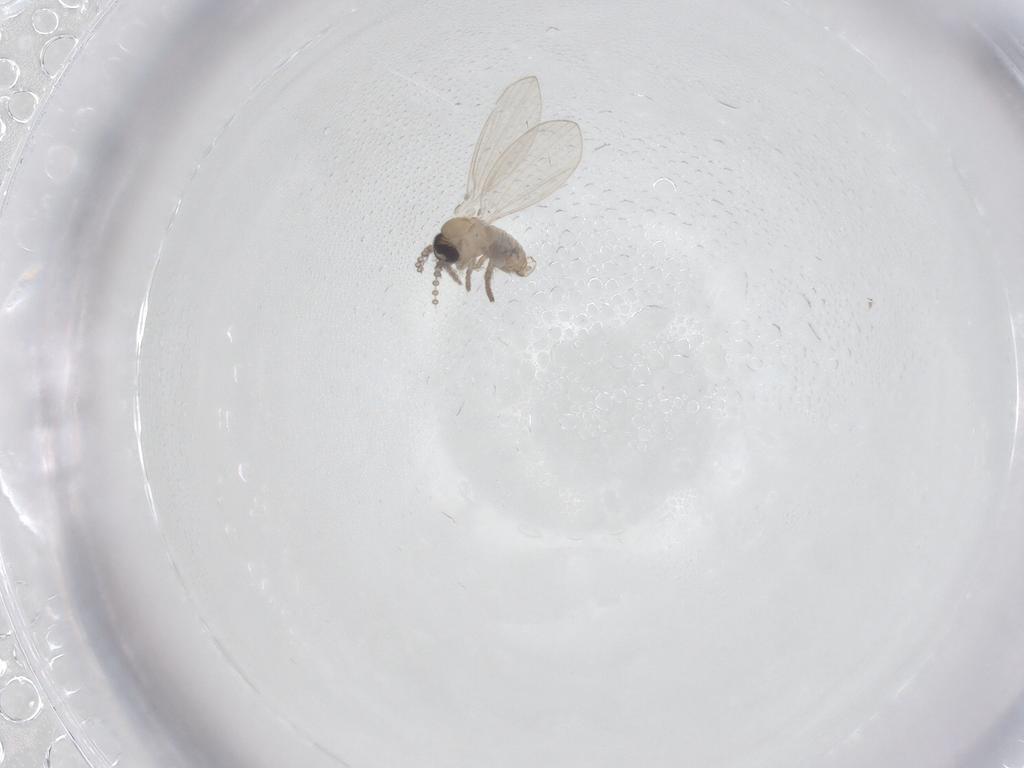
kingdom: Animalia
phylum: Arthropoda
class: Insecta
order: Diptera
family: Psychodidae
